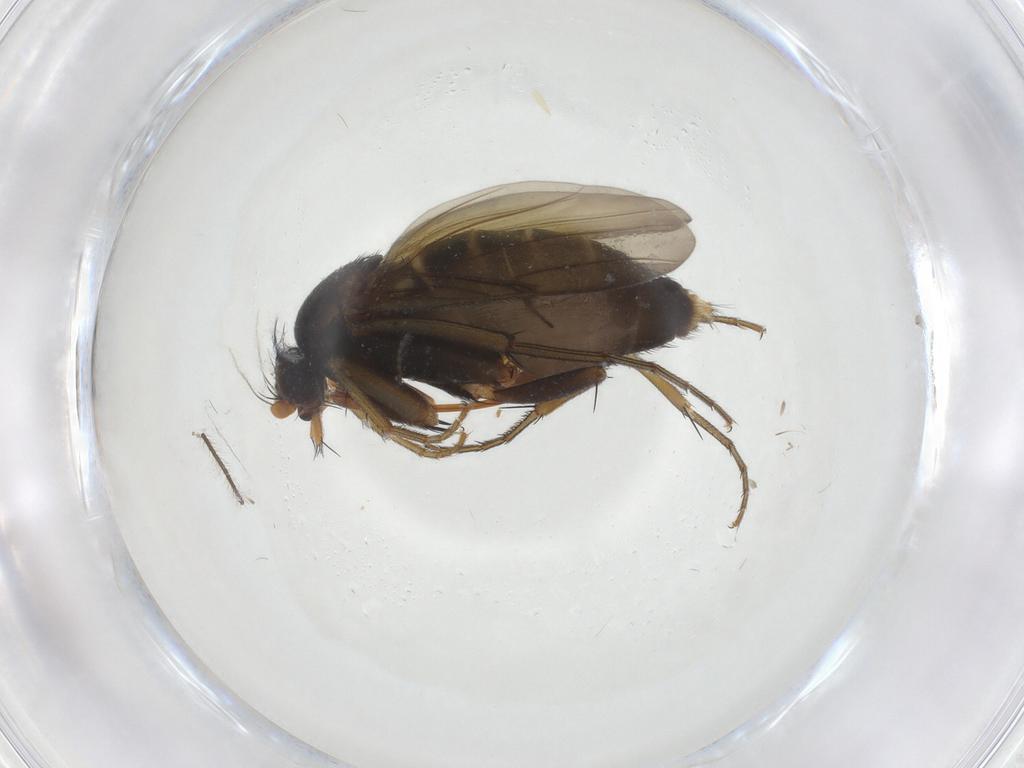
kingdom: Animalia
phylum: Arthropoda
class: Insecta
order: Diptera
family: Phoridae
